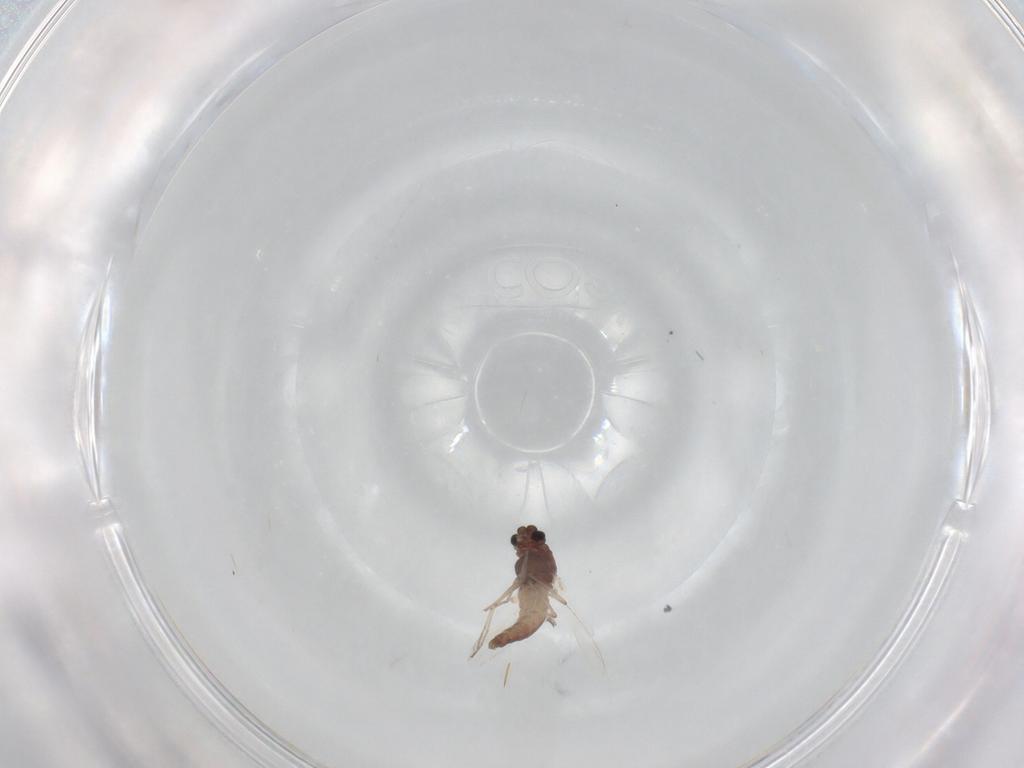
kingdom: Animalia
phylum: Arthropoda
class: Insecta
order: Diptera
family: Chironomidae
